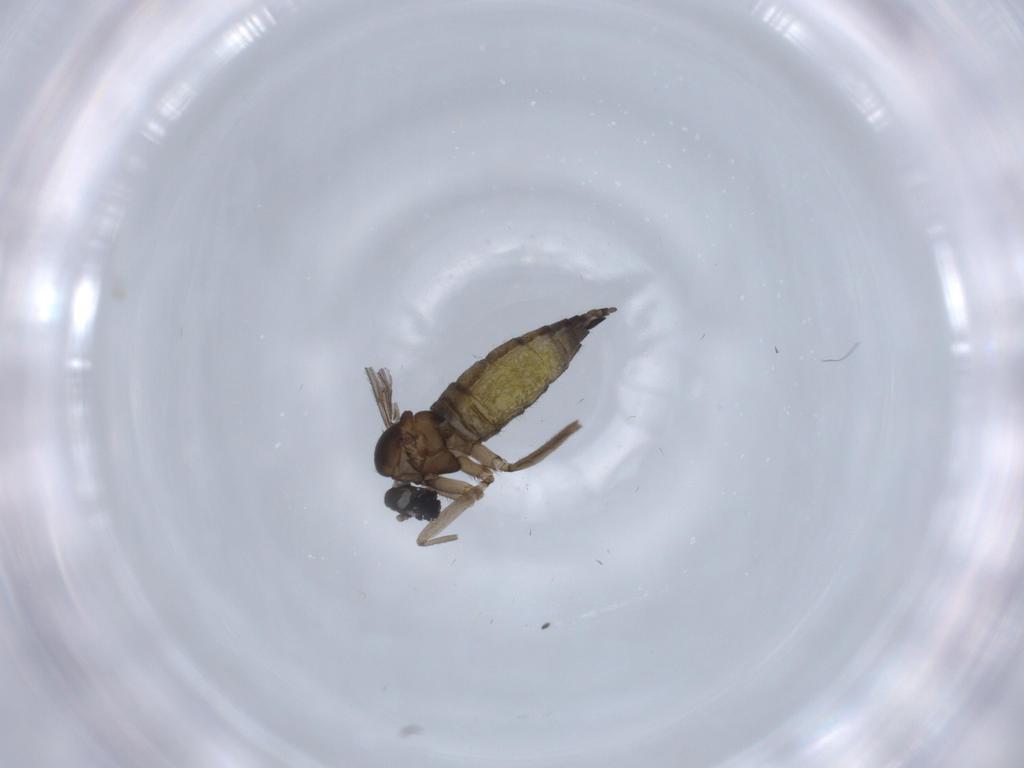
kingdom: Animalia
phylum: Arthropoda
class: Insecta
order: Diptera
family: Sciaridae
